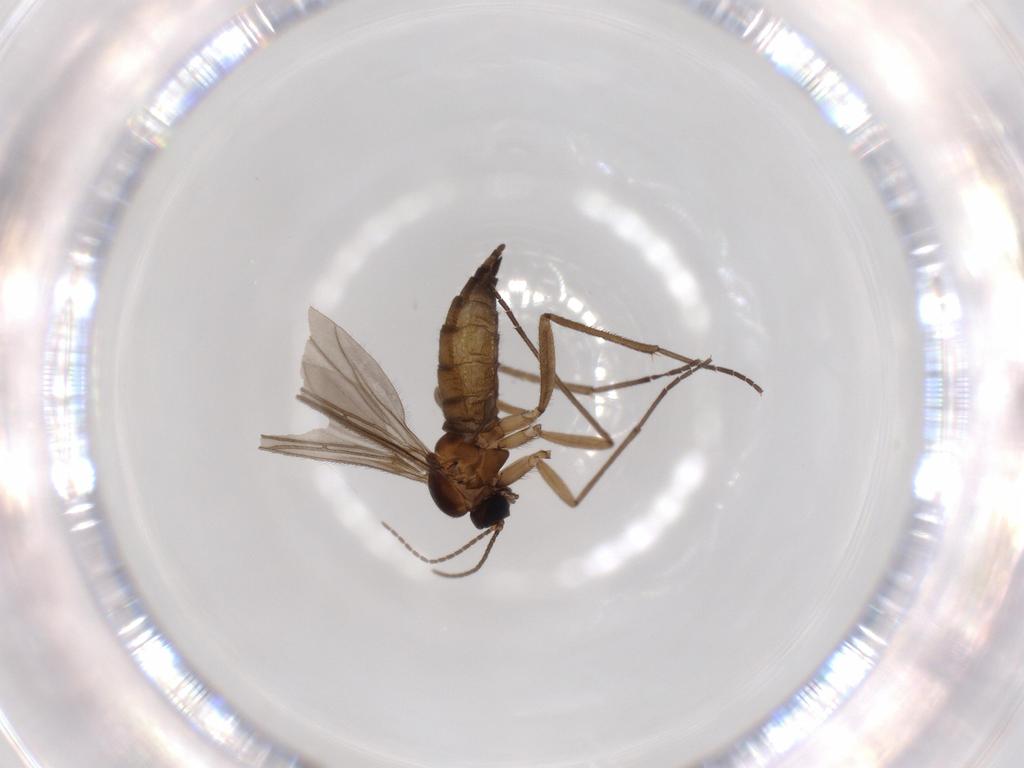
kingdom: Animalia
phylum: Arthropoda
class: Insecta
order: Diptera
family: Sciaridae
